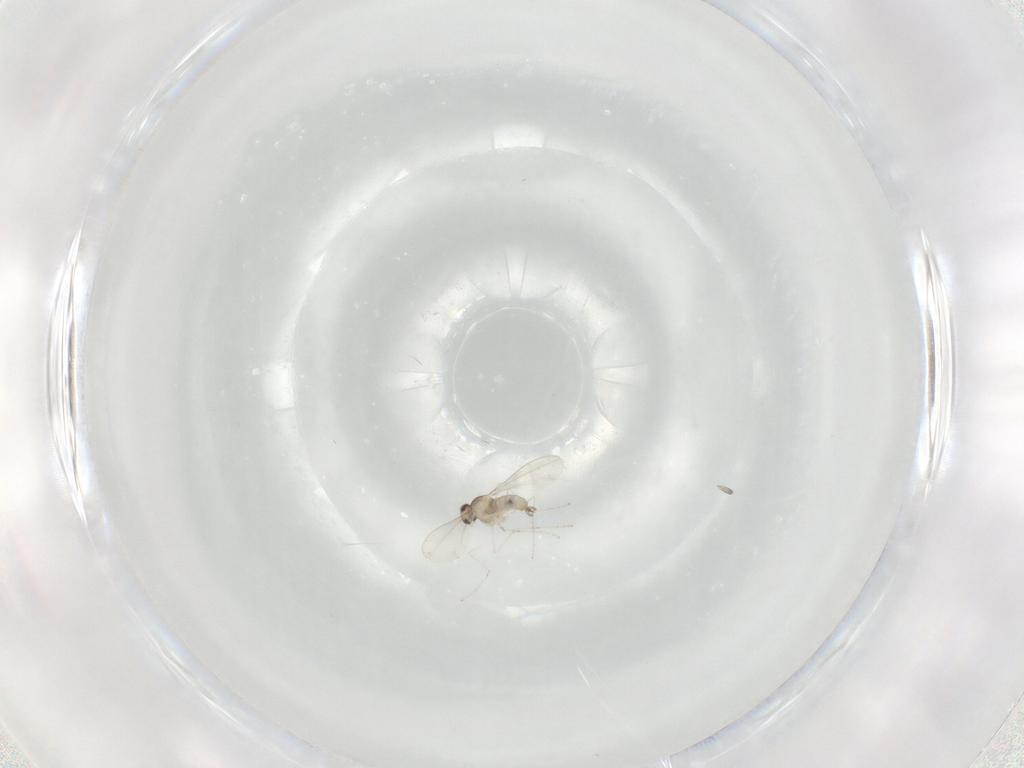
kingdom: Animalia
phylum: Arthropoda
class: Insecta
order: Diptera
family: Cecidomyiidae
